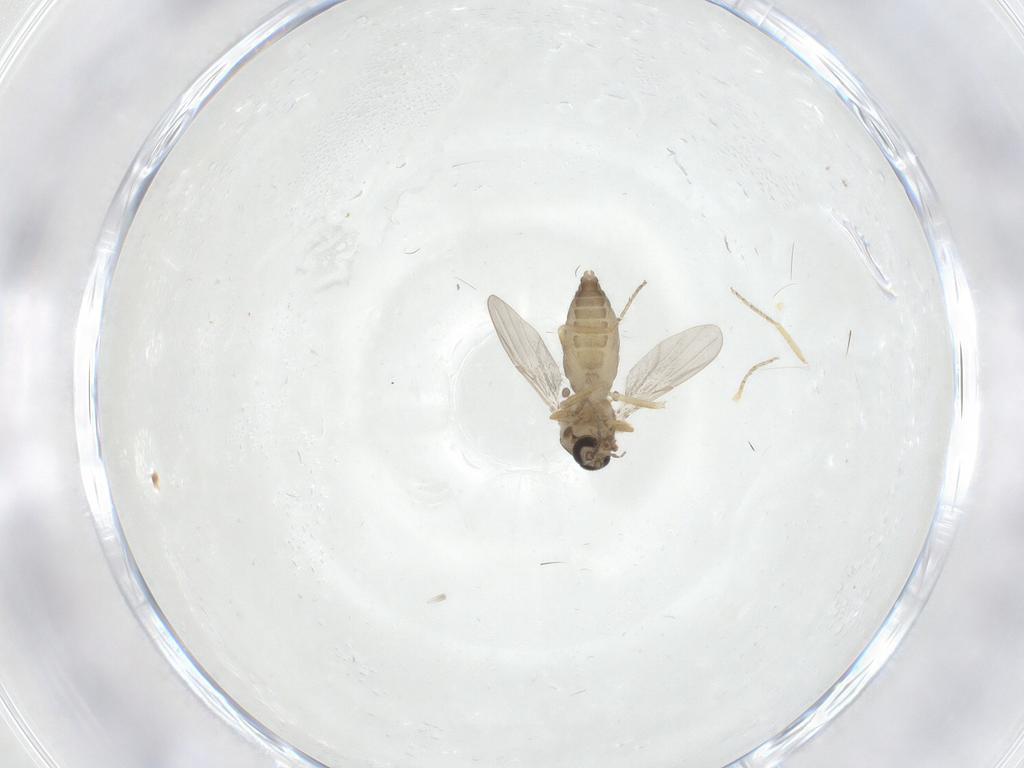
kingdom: Animalia
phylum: Arthropoda
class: Insecta
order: Diptera
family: Ceratopogonidae
